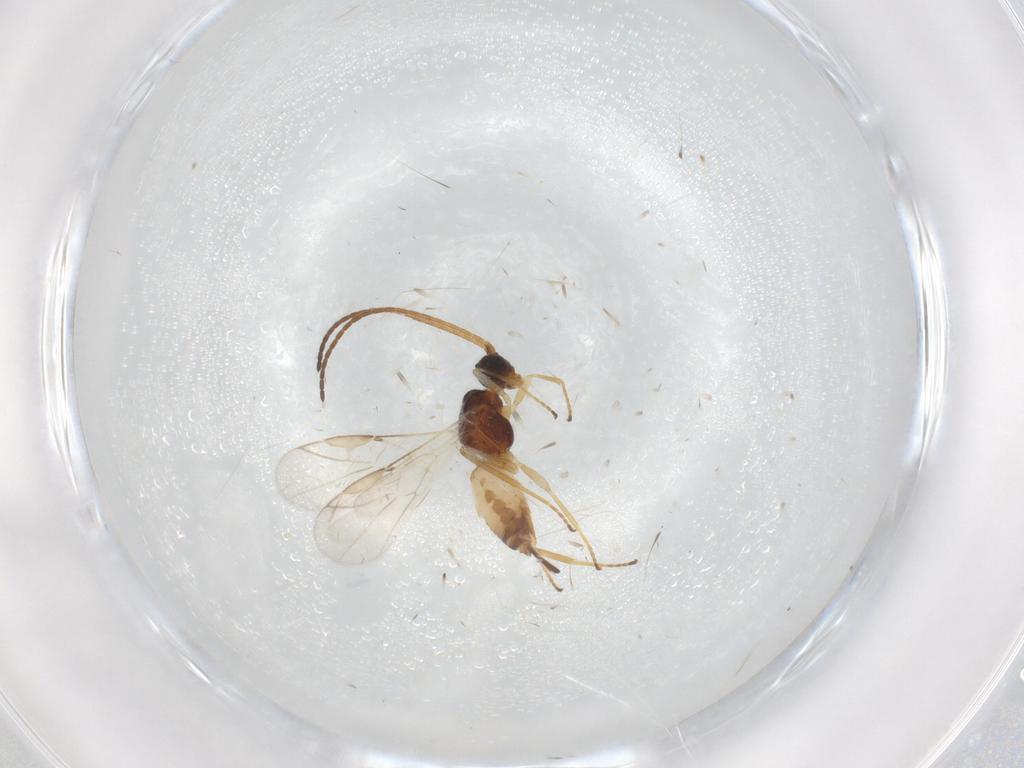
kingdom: Animalia
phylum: Arthropoda
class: Insecta
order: Hymenoptera
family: Braconidae
